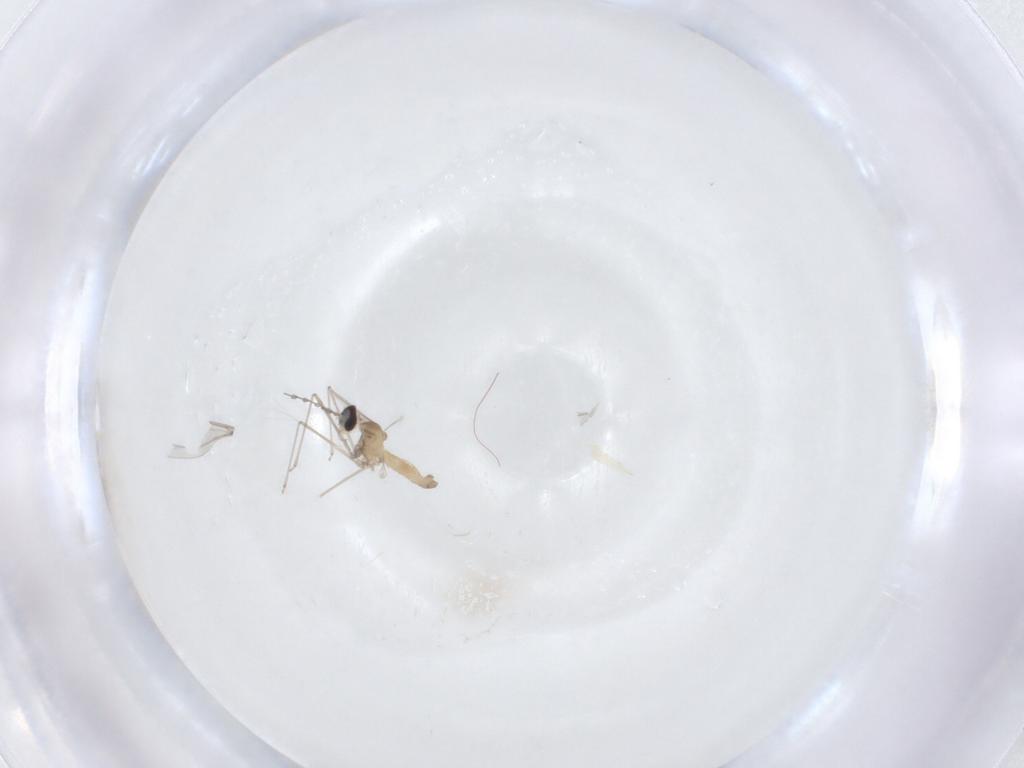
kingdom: Animalia
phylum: Arthropoda
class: Insecta
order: Diptera
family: Cecidomyiidae
